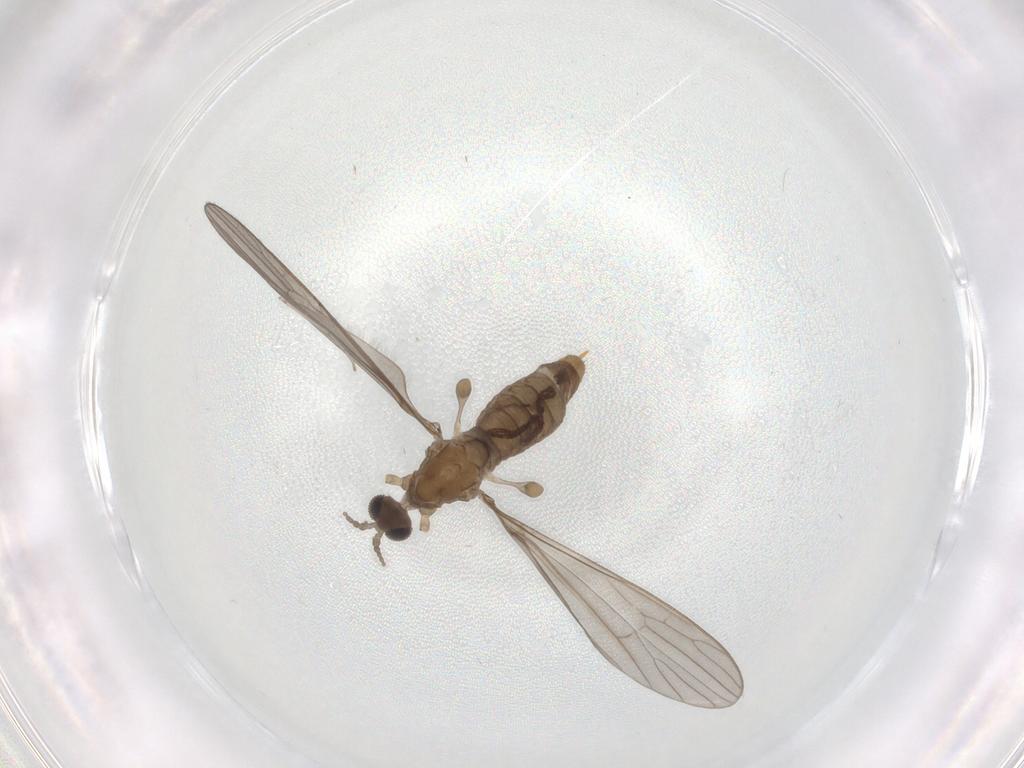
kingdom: Animalia
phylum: Arthropoda
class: Insecta
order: Diptera
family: Limoniidae
